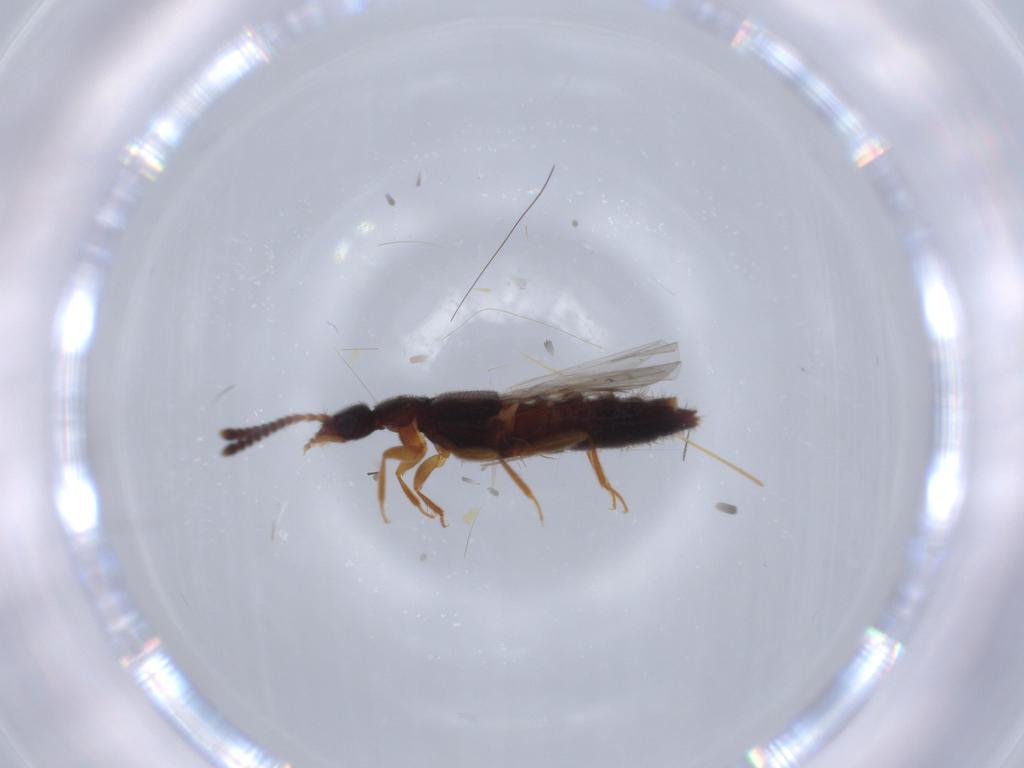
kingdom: Animalia
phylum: Arthropoda
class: Insecta
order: Coleoptera
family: Staphylinidae
